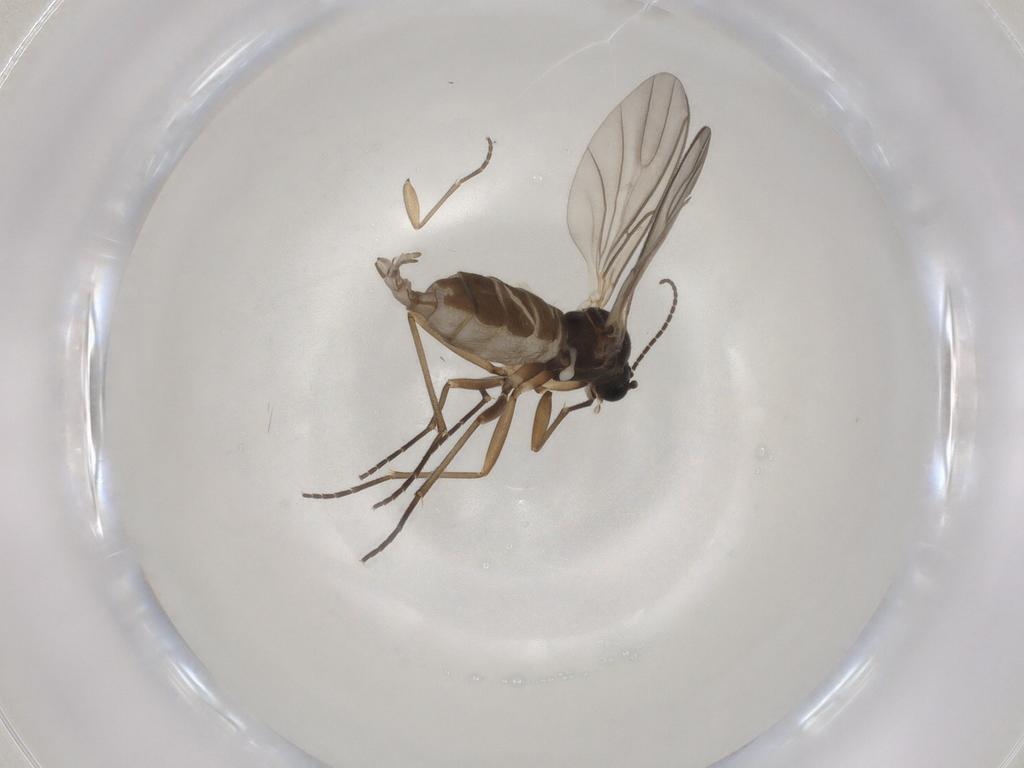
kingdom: Animalia
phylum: Arthropoda
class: Insecta
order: Diptera
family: Sciaridae
